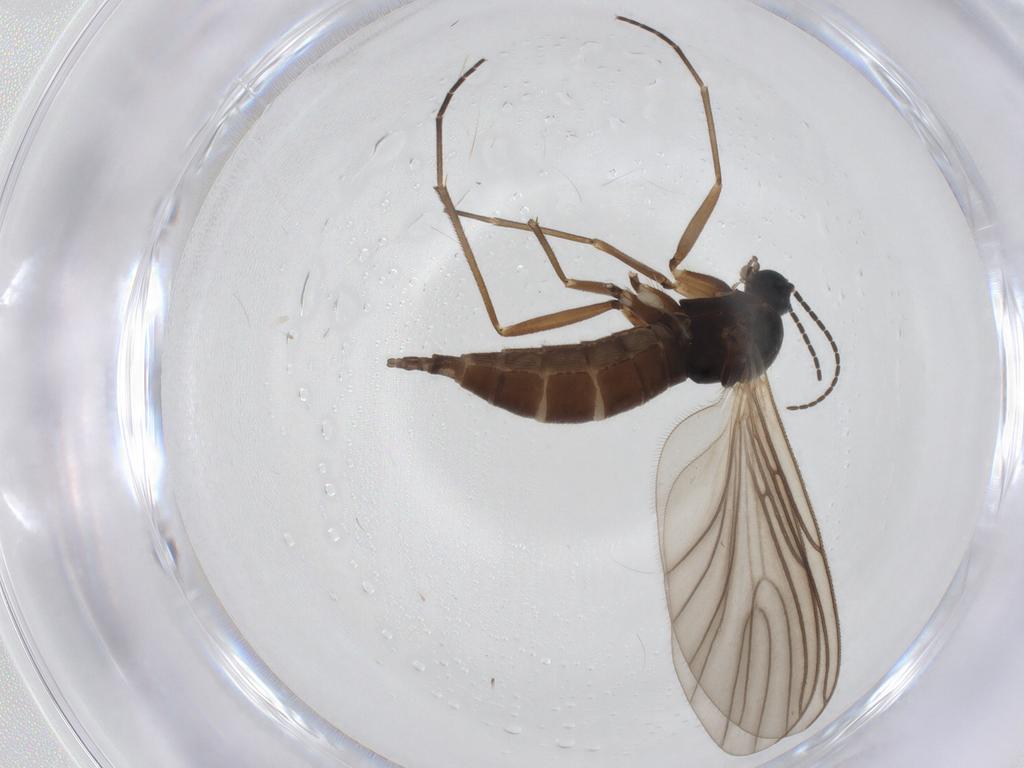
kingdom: Animalia
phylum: Arthropoda
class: Insecta
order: Diptera
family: Sciaridae
